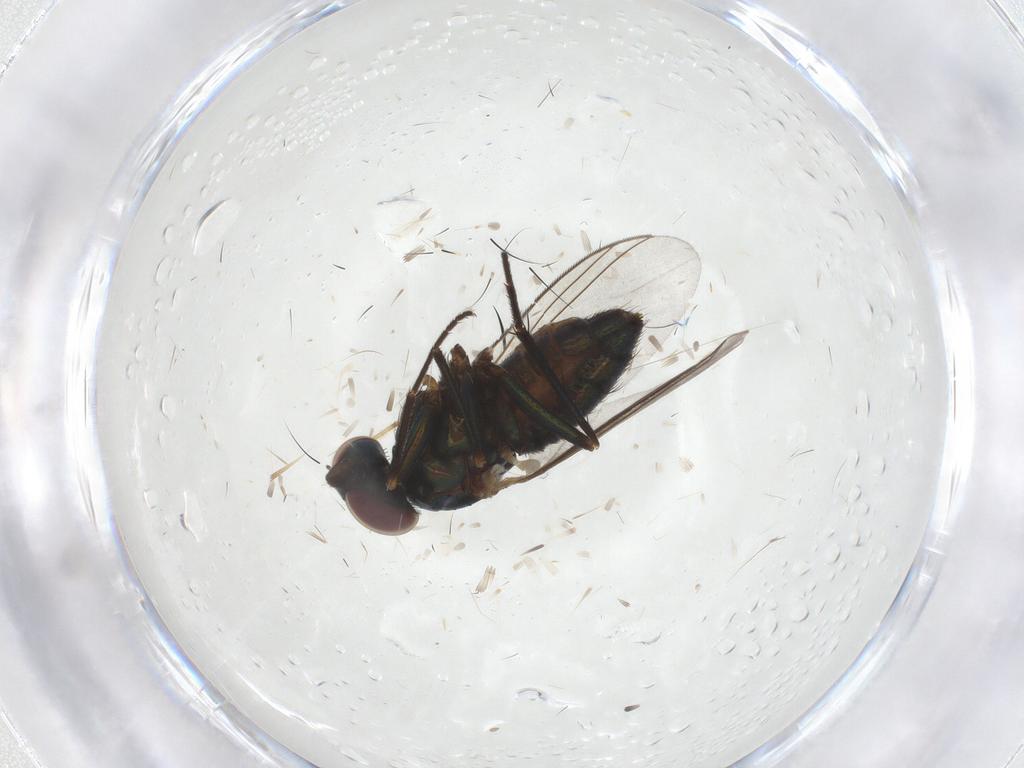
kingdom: Animalia
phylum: Arthropoda
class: Insecta
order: Diptera
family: Dolichopodidae
